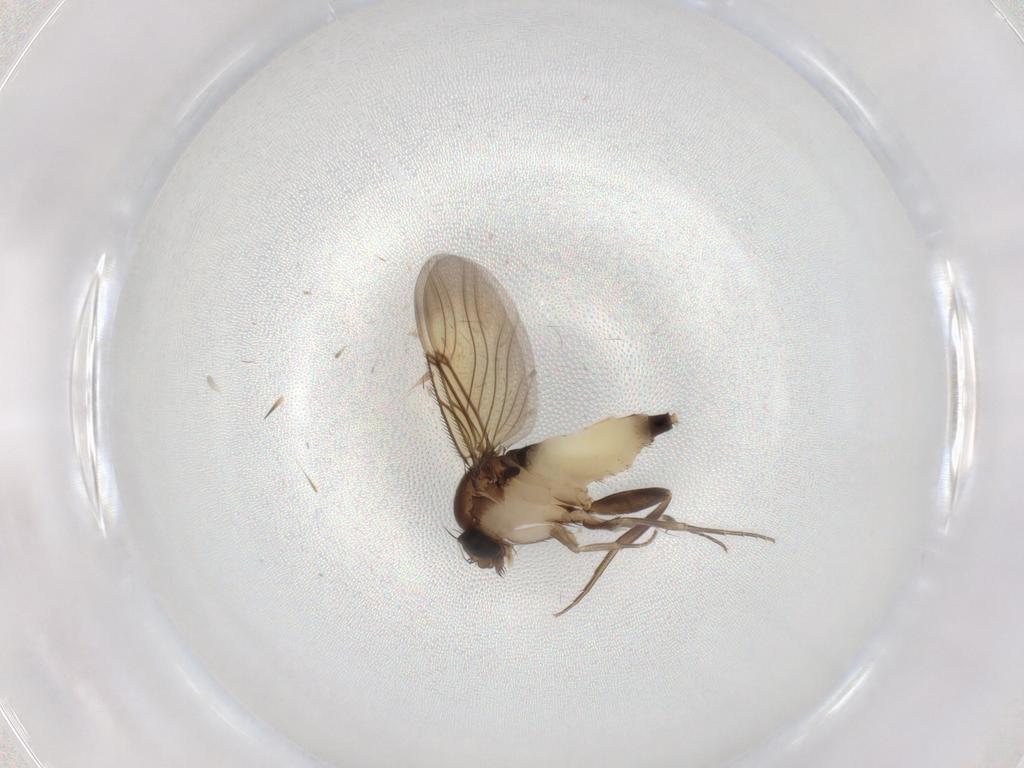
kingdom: Animalia
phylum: Arthropoda
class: Insecta
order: Diptera
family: Phoridae
